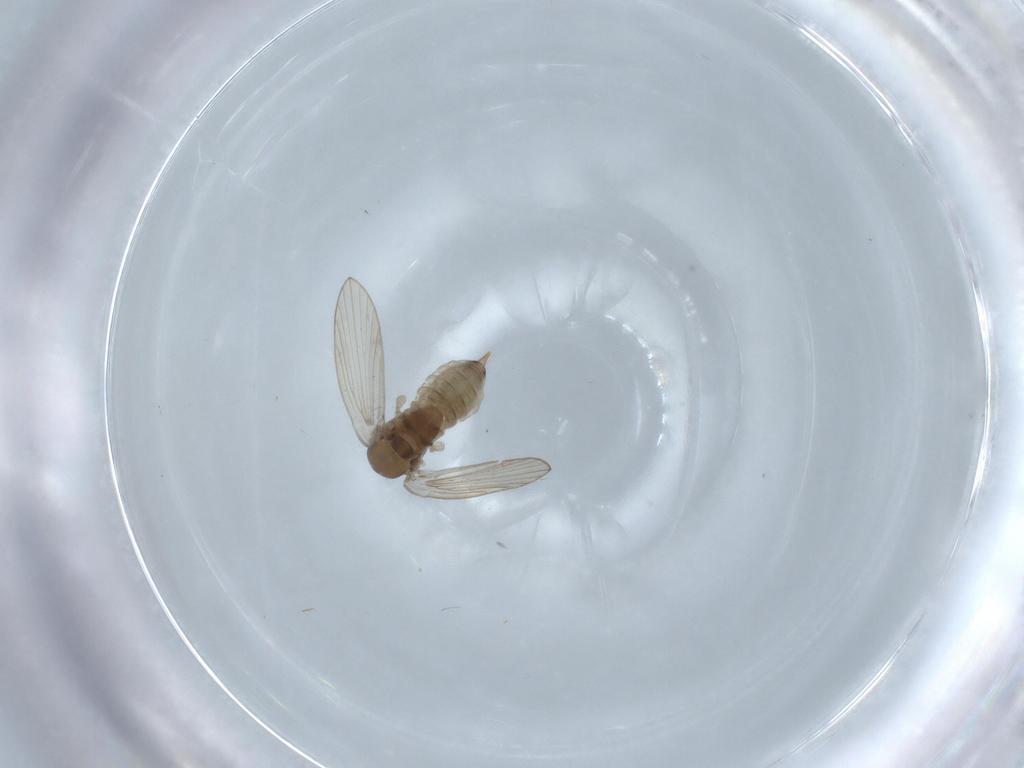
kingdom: Animalia
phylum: Arthropoda
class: Insecta
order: Diptera
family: Psychodidae
